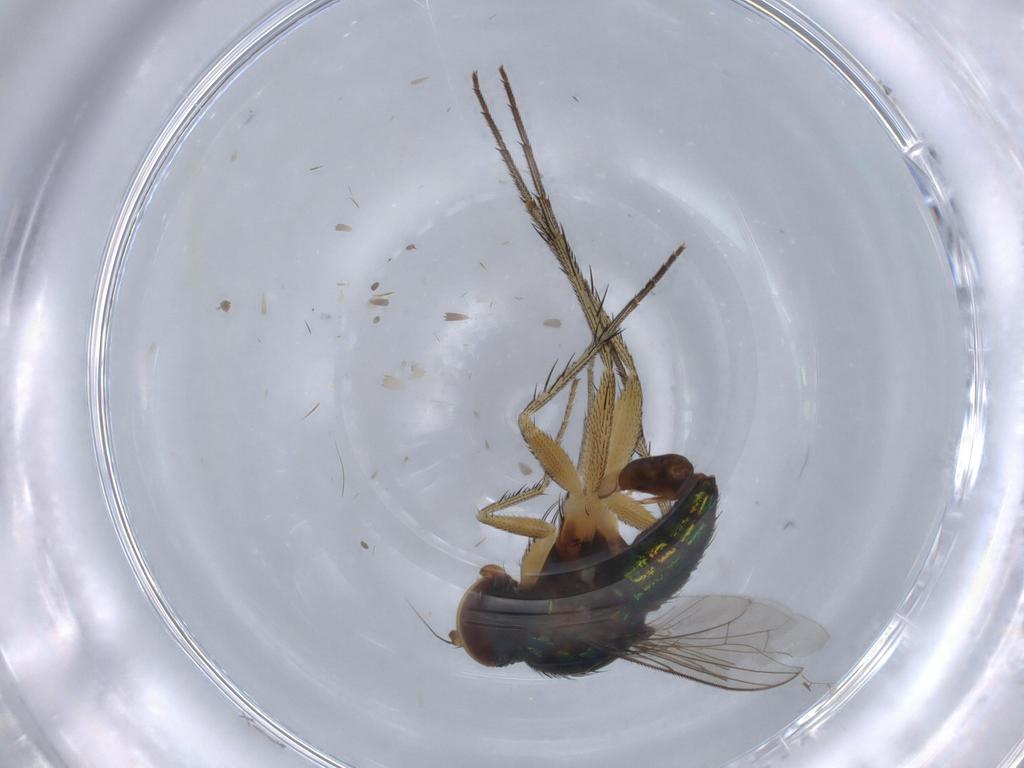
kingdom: Animalia
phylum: Arthropoda
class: Insecta
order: Diptera
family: Dolichopodidae
